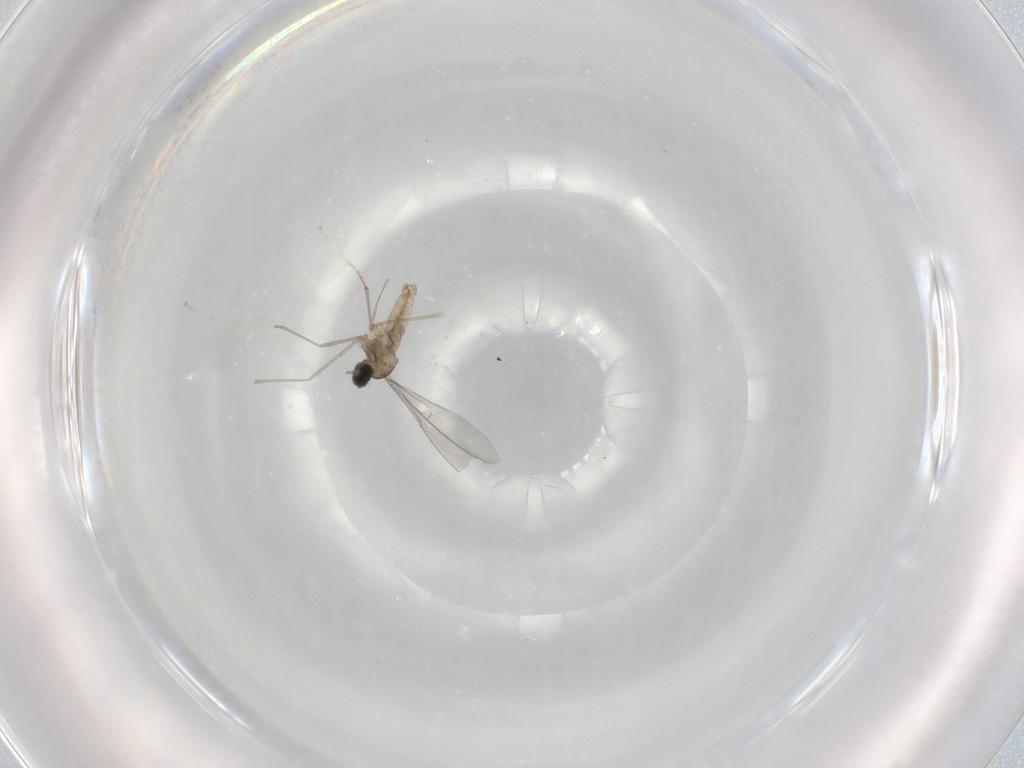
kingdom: Animalia
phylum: Arthropoda
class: Insecta
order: Diptera
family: Cecidomyiidae
